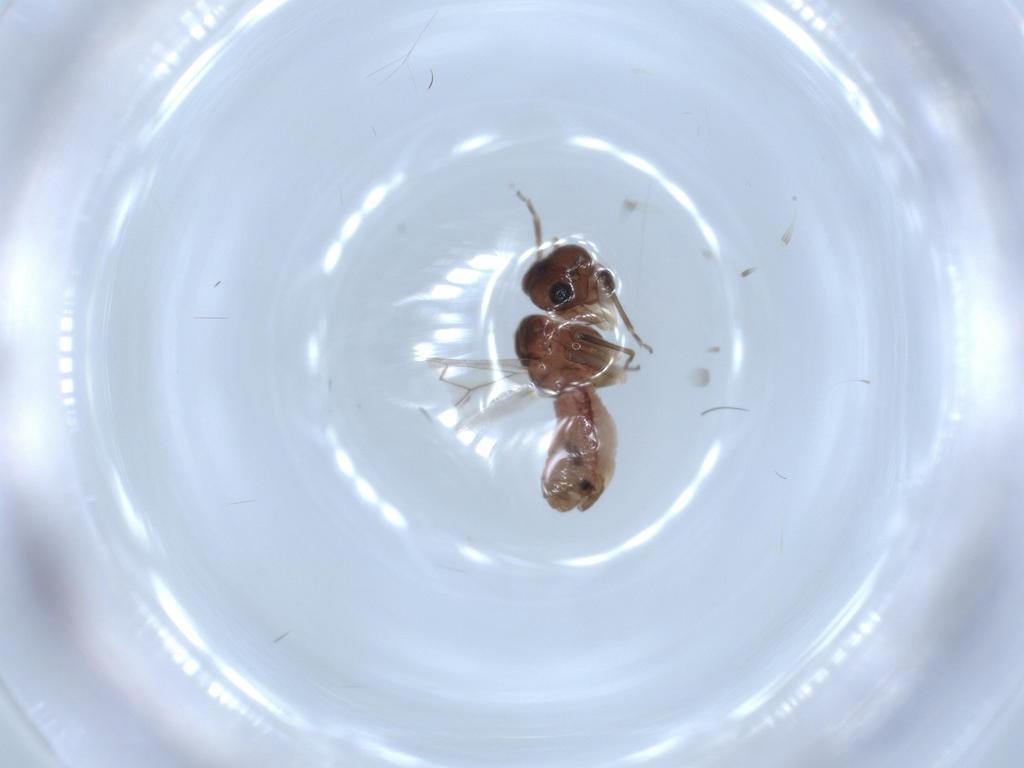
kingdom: Animalia
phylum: Arthropoda
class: Insecta
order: Psocodea
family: Caeciliusidae
